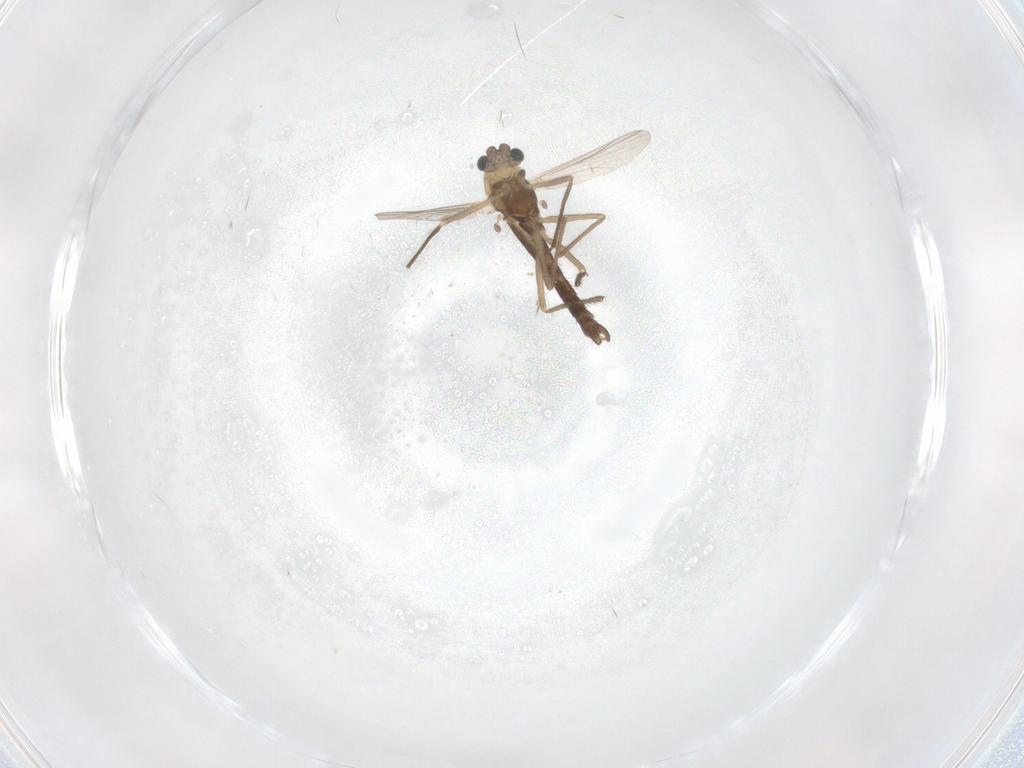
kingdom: Animalia
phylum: Arthropoda
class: Insecta
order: Diptera
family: Chironomidae
